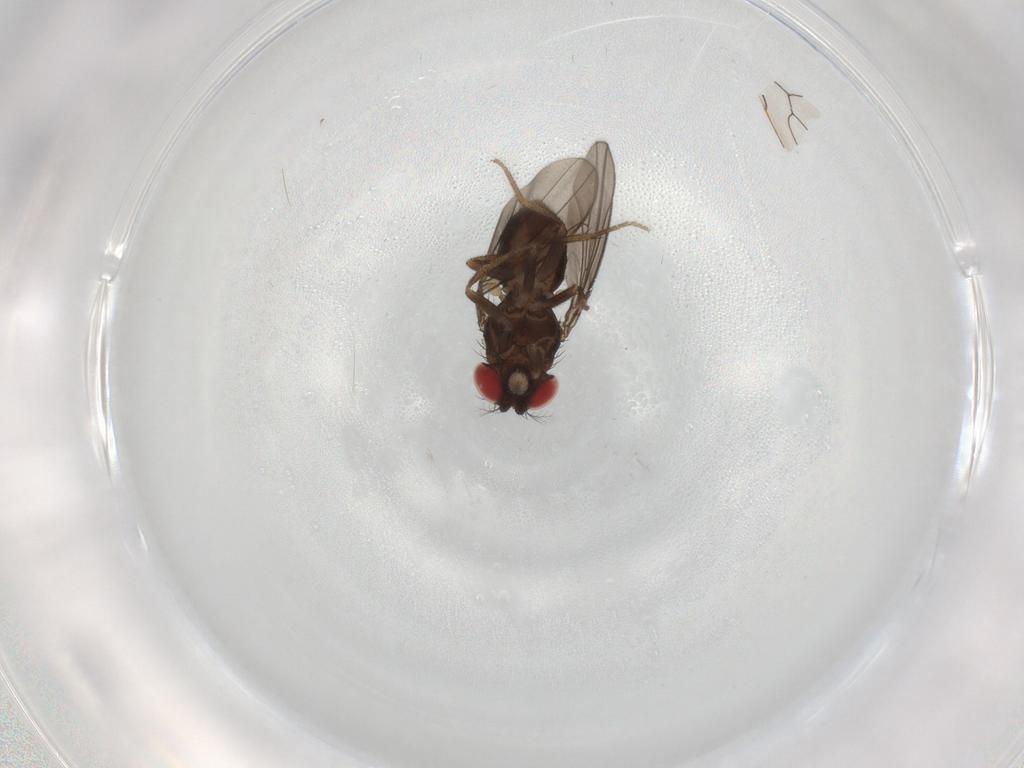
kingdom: Animalia
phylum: Arthropoda
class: Insecta
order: Diptera
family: Drosophilidae
